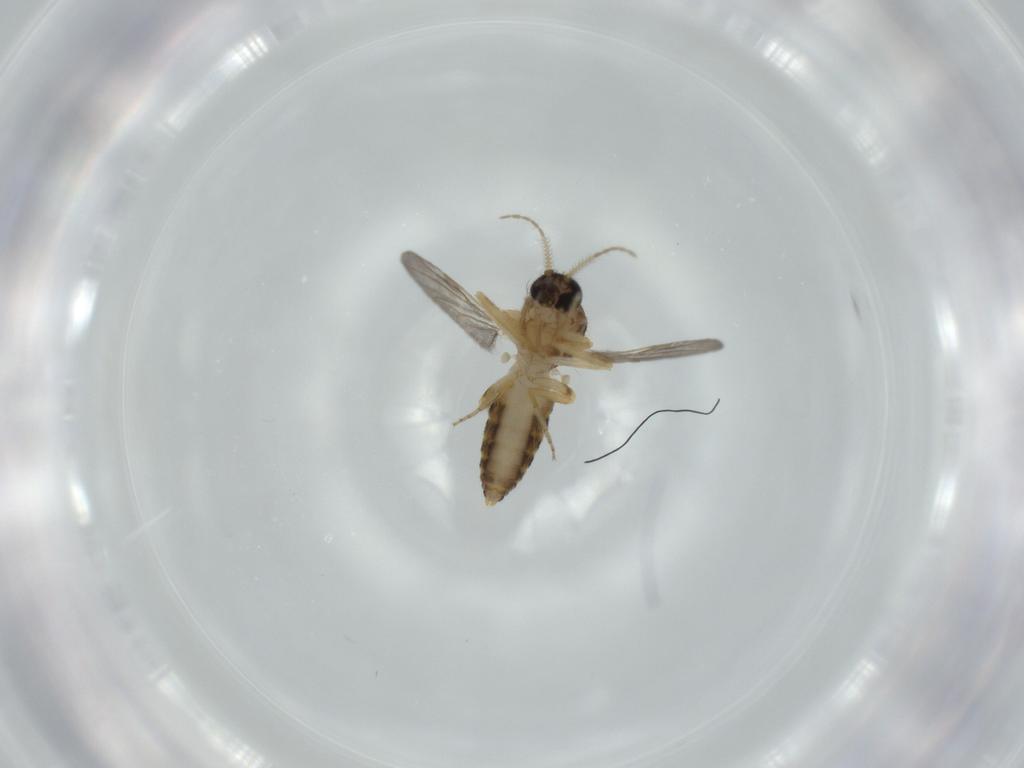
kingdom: Animalia
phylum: Arthropoda
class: Insecta
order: Diptera
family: Ceratopogonidae
